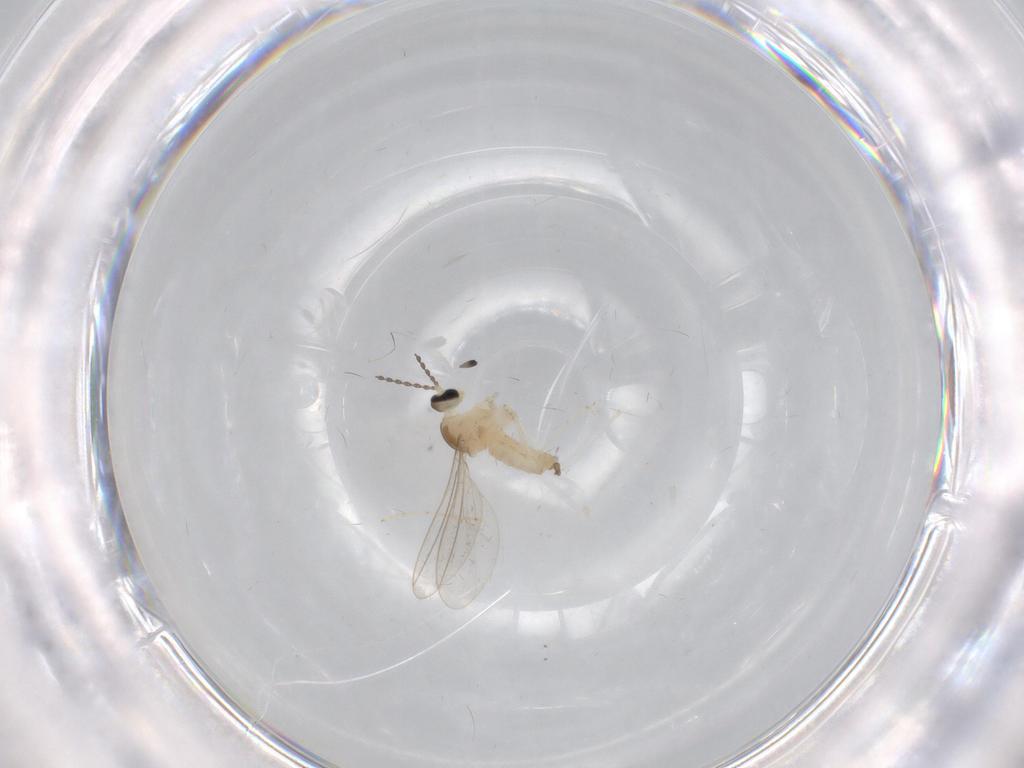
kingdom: Animalia
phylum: Arthropoda
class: Insecta
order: Diptera
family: Cecidomyiidae
